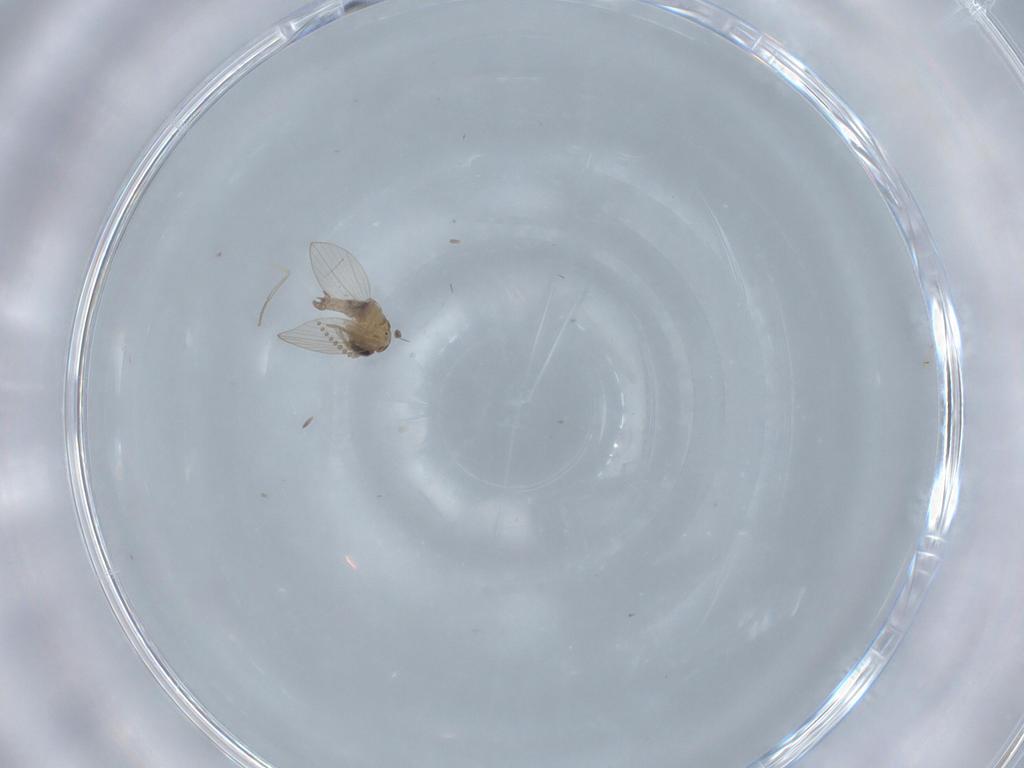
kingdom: Animalia
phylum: Arthropoda
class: Insecta
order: Diptera
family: Psychodidae
